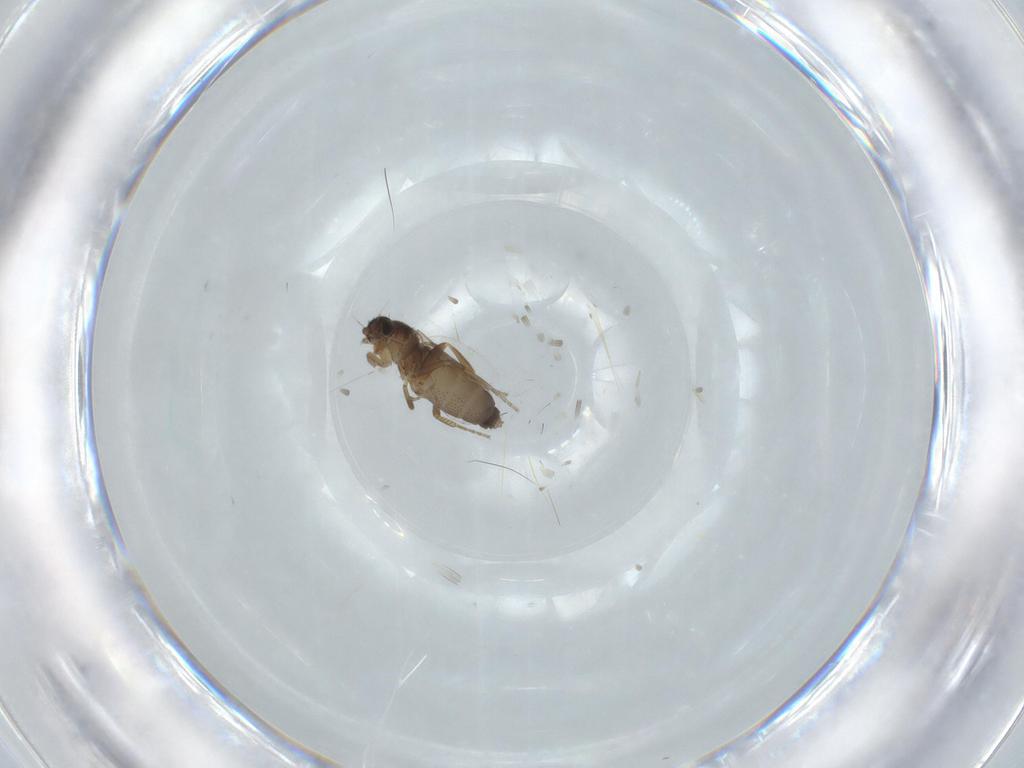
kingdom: Animalia
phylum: Arthropoda
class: Insecta
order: Diptera
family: Phoridae
